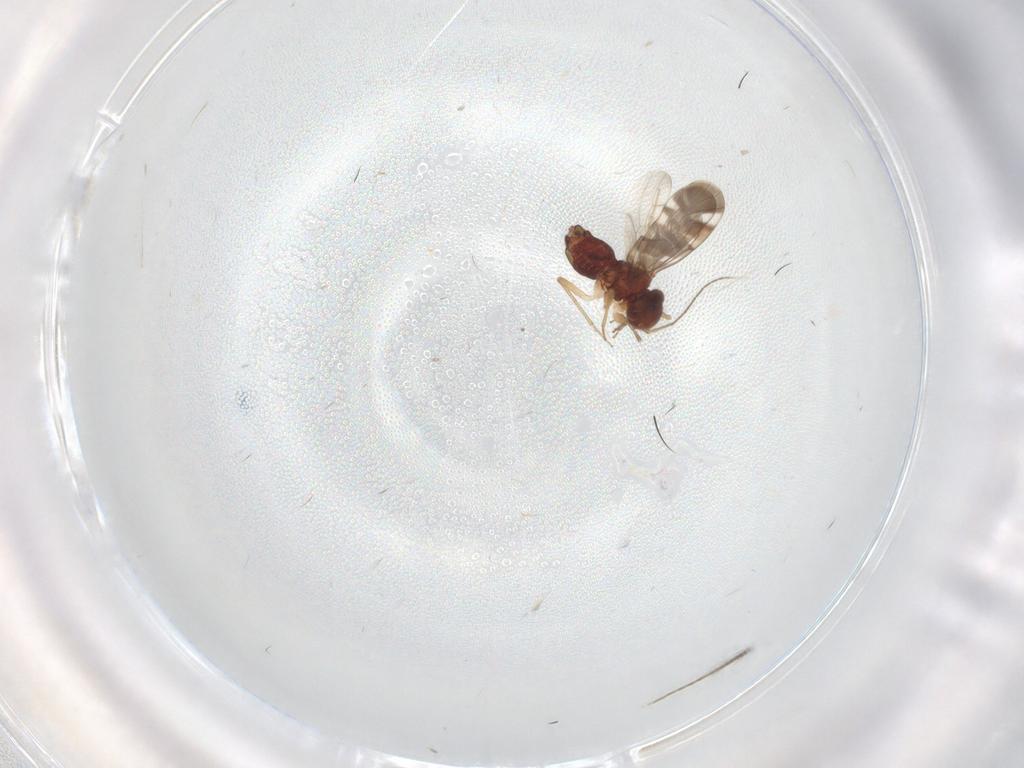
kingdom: Animalia
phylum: Arthropoda
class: Insecta
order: Diptera
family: Ceratopogonidae
